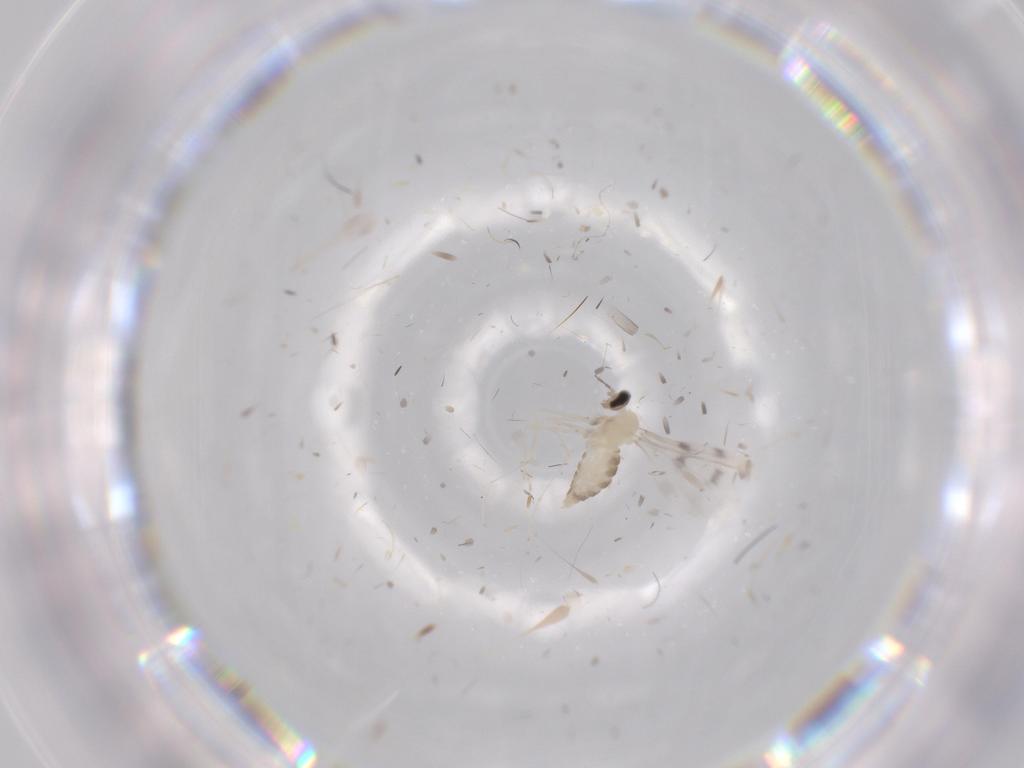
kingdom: Animalia
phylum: Arthropoda
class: Insecta
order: Diptera
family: Cecidomyiidae
